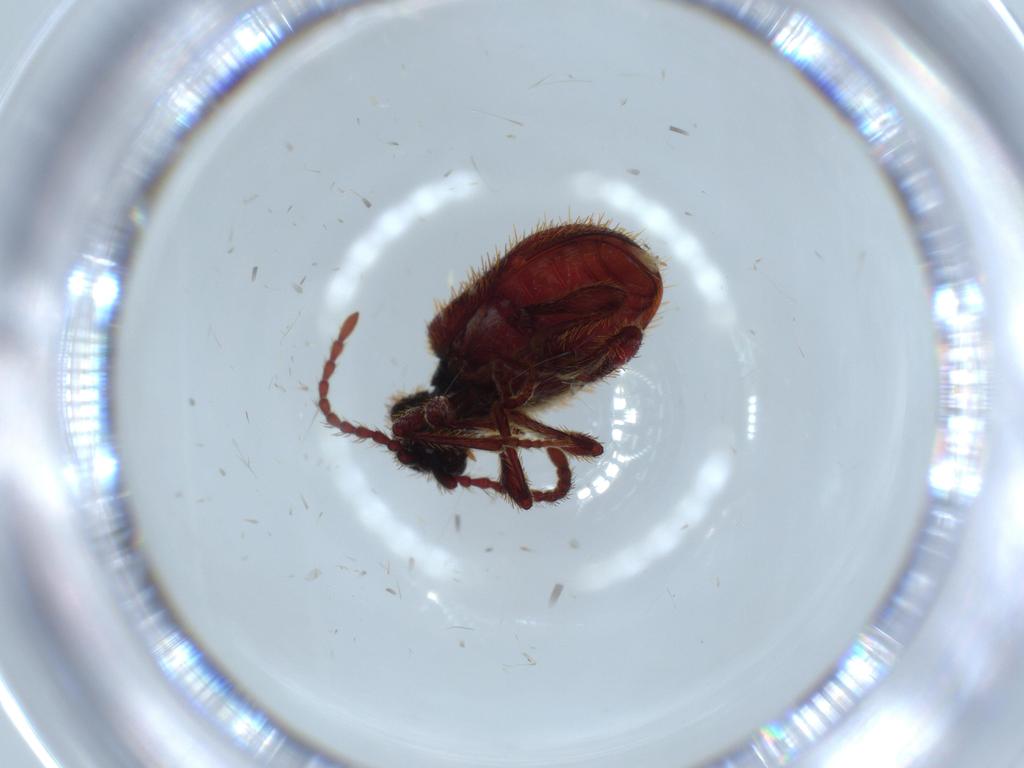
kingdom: Animalia
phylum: Arthropoda
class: Insecta
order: Coleoptera
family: Ptinidae
